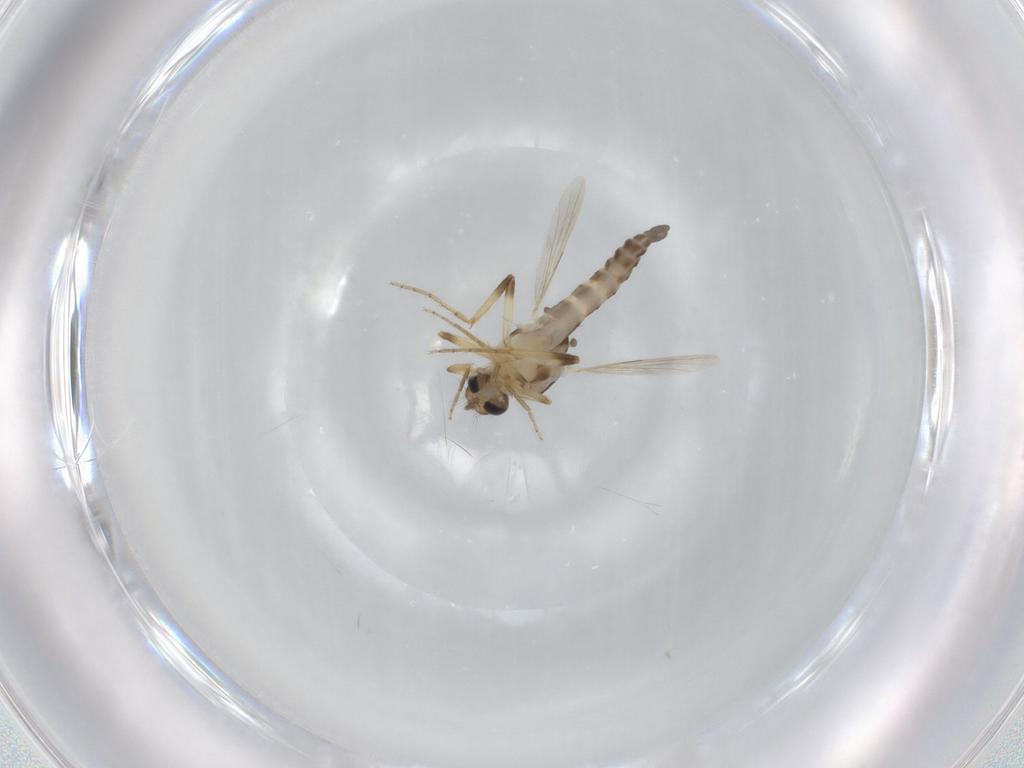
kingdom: Animalia
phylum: Arthropoda
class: Insecta
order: Diptera
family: Ceratopogonidae
